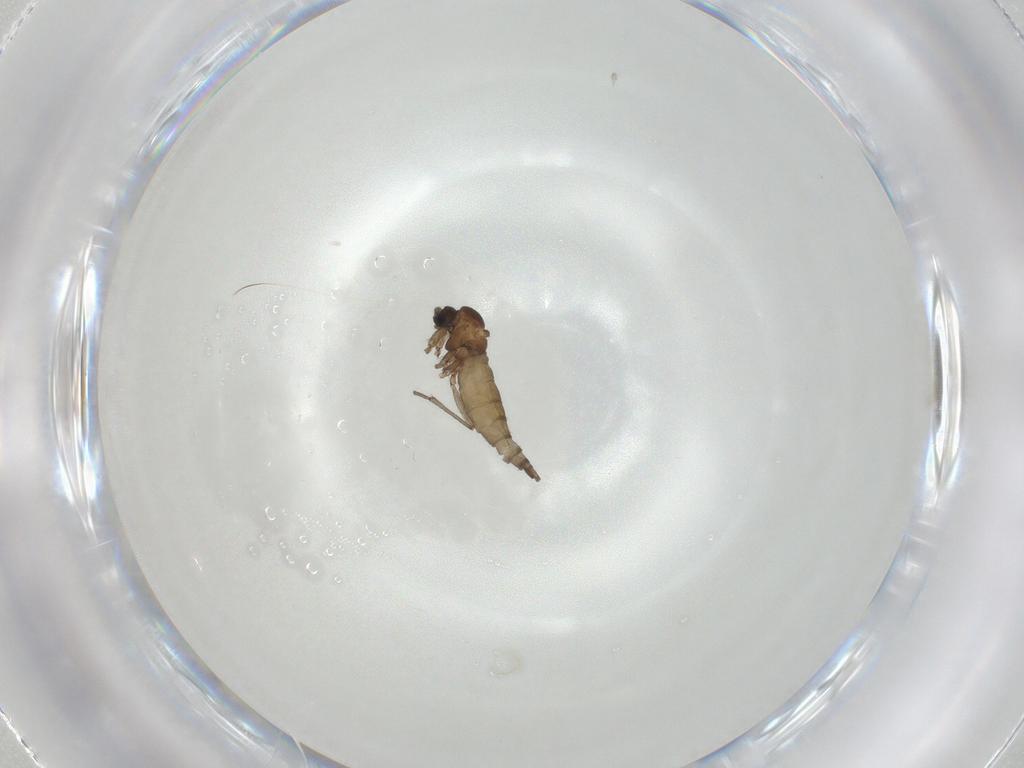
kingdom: Animalia
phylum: Arthropoda
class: Insecta
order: Diptera
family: Sciaridae
